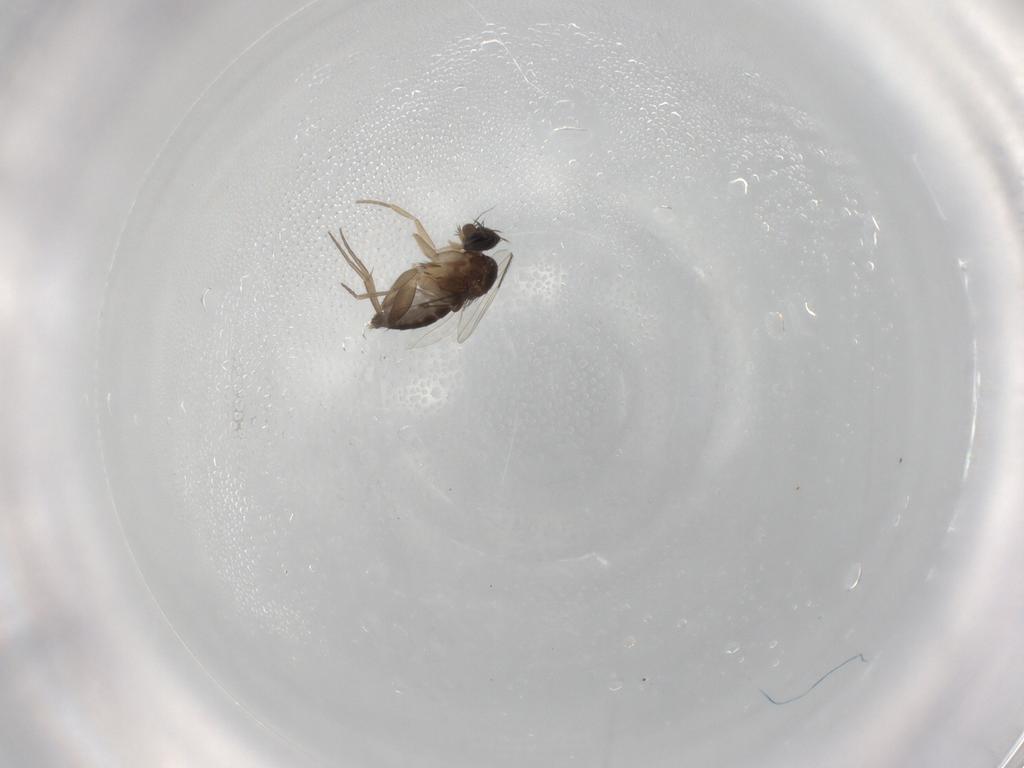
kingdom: Animalia
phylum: Arthropoda
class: Insecta
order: Diptera
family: Phoridae
